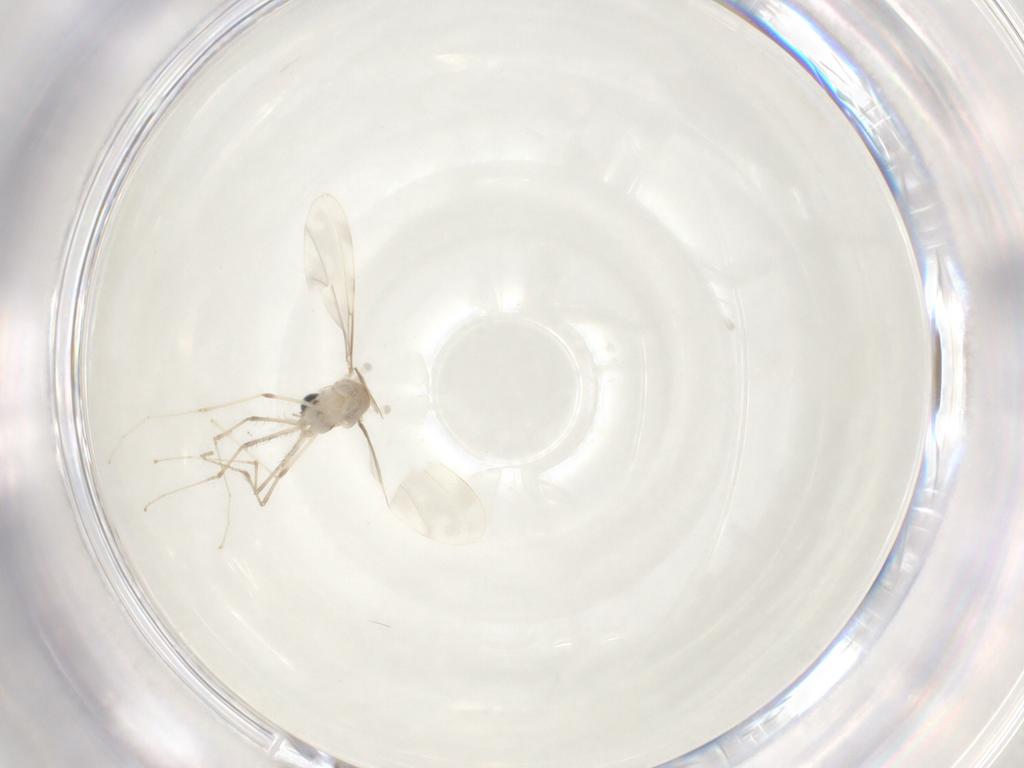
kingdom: Animalia
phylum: Arthropoda
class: Insecta
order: Diptera
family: Cecidomyiidae
